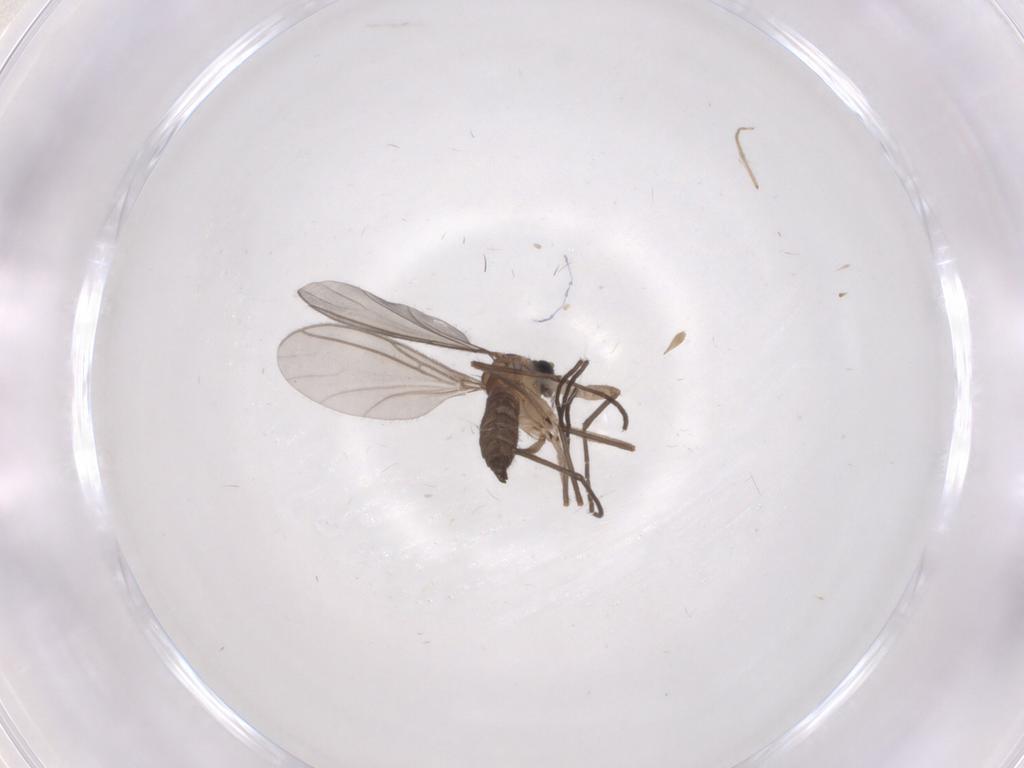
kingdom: Animalia
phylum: Arthropoda
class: Insecta
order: Diptera
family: Sciaridae
